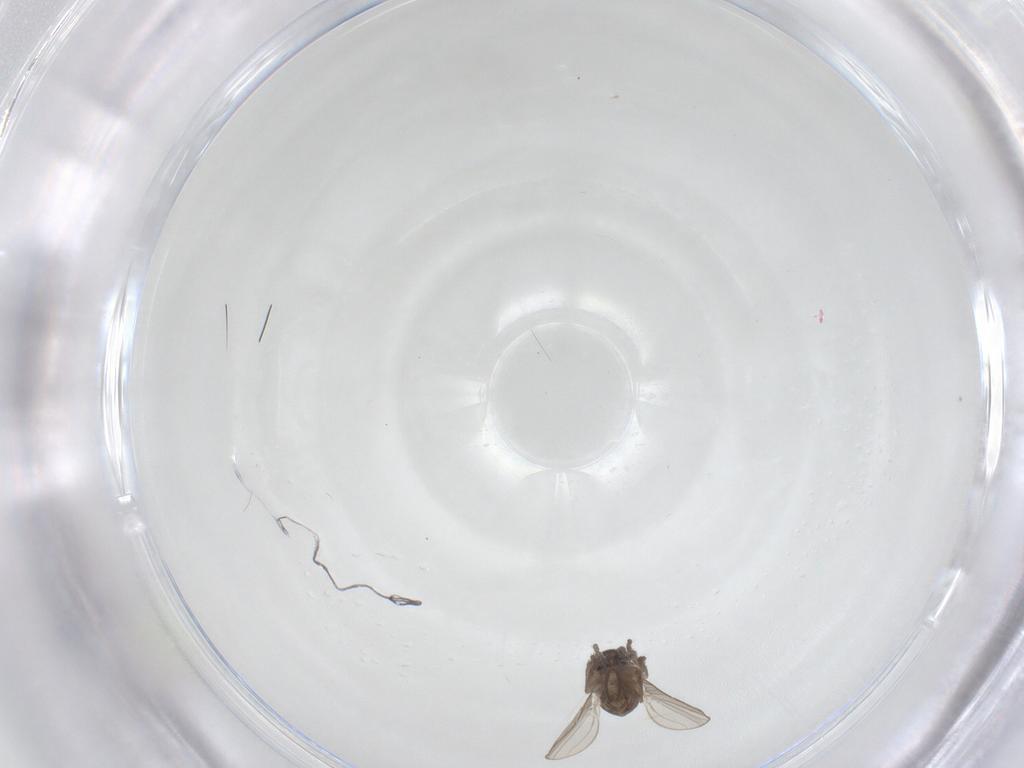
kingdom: Animalia
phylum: Arthropoda
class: Insecta
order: Diptera
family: Psychodidae
